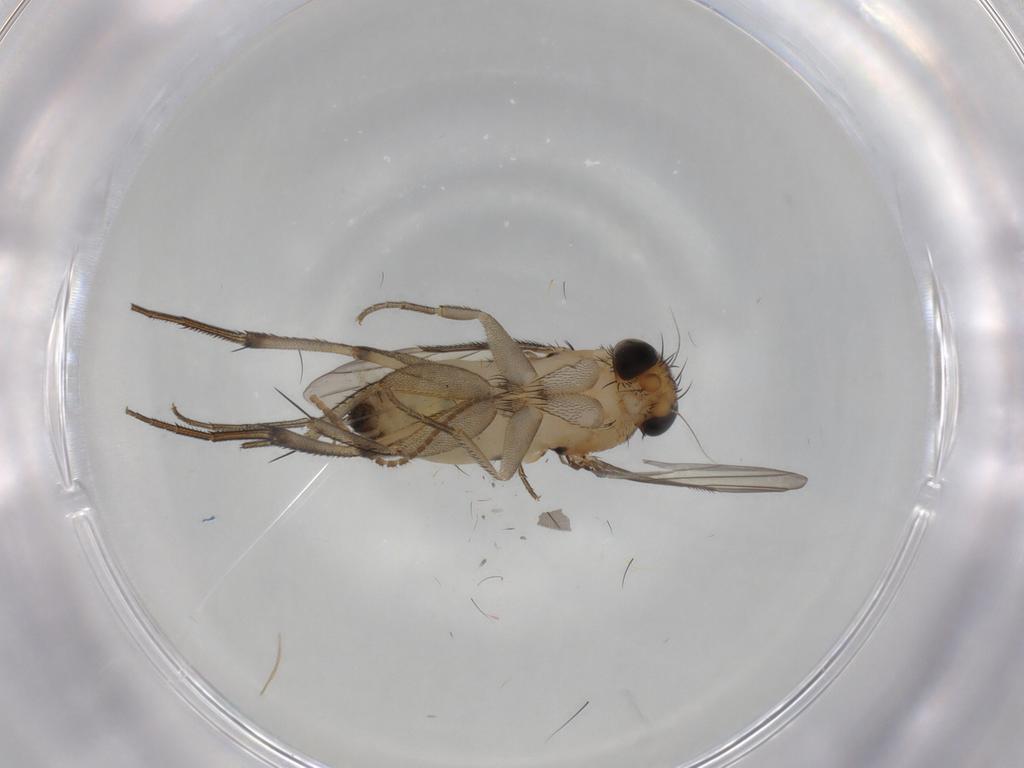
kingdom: Animalia
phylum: Arthropoda
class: Insecta
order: Diptera
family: Phoridae
